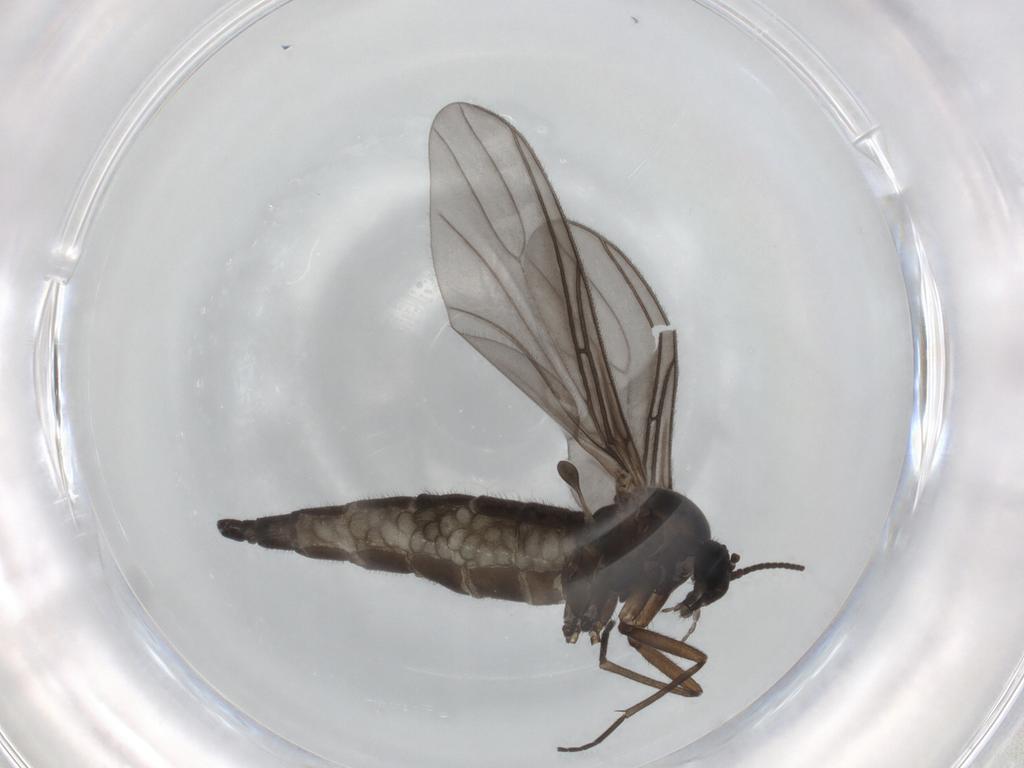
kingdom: Animalia
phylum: Arthropoda
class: Insecta
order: Diptera
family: Sciaridae
